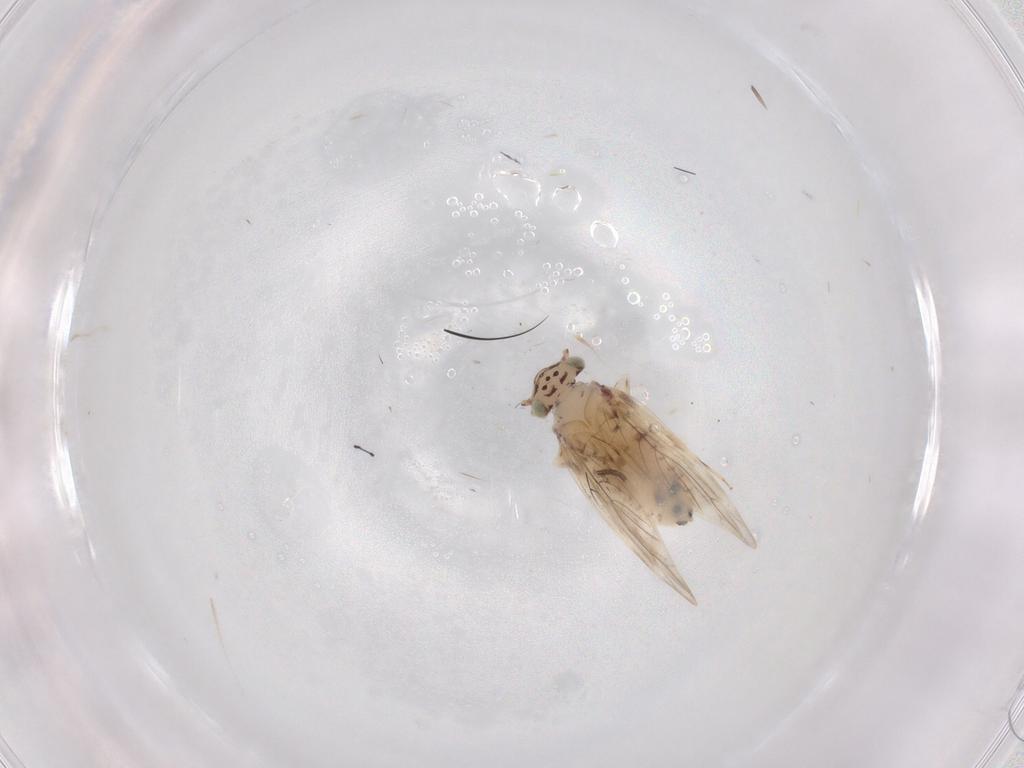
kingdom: Animalia
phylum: Arthropoda
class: Insecta
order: Psocodea
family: Lepidopsocidae
